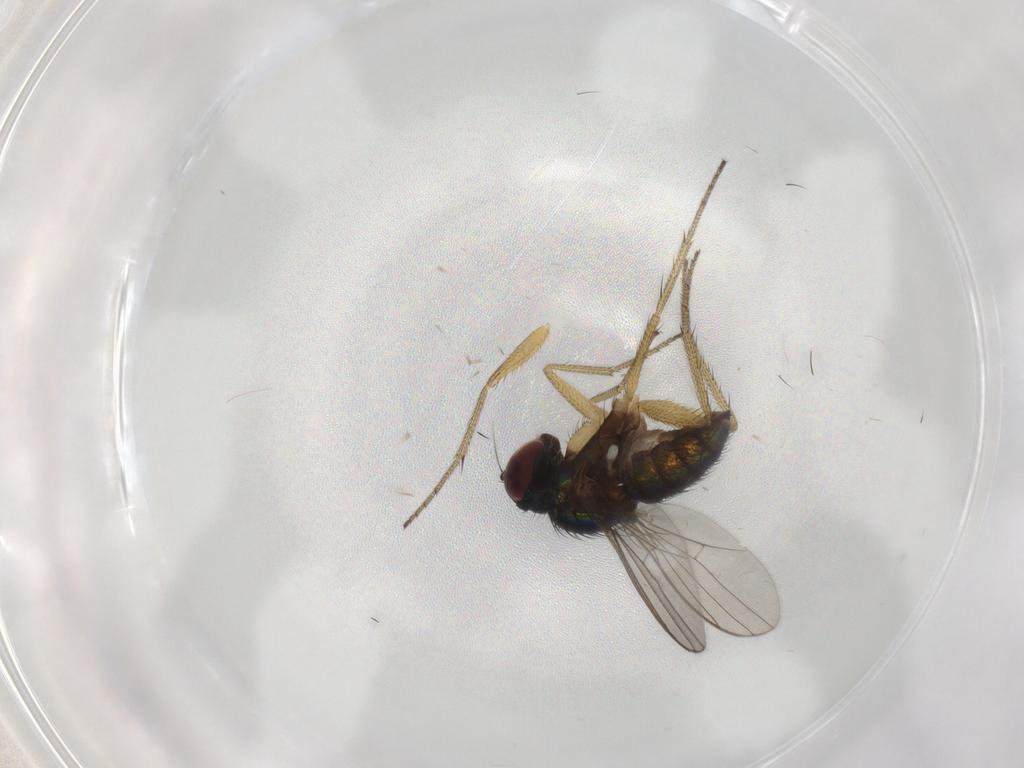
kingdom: Animalia
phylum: Arthropoda
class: Insecta
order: Diptera
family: Dolichopodidae
